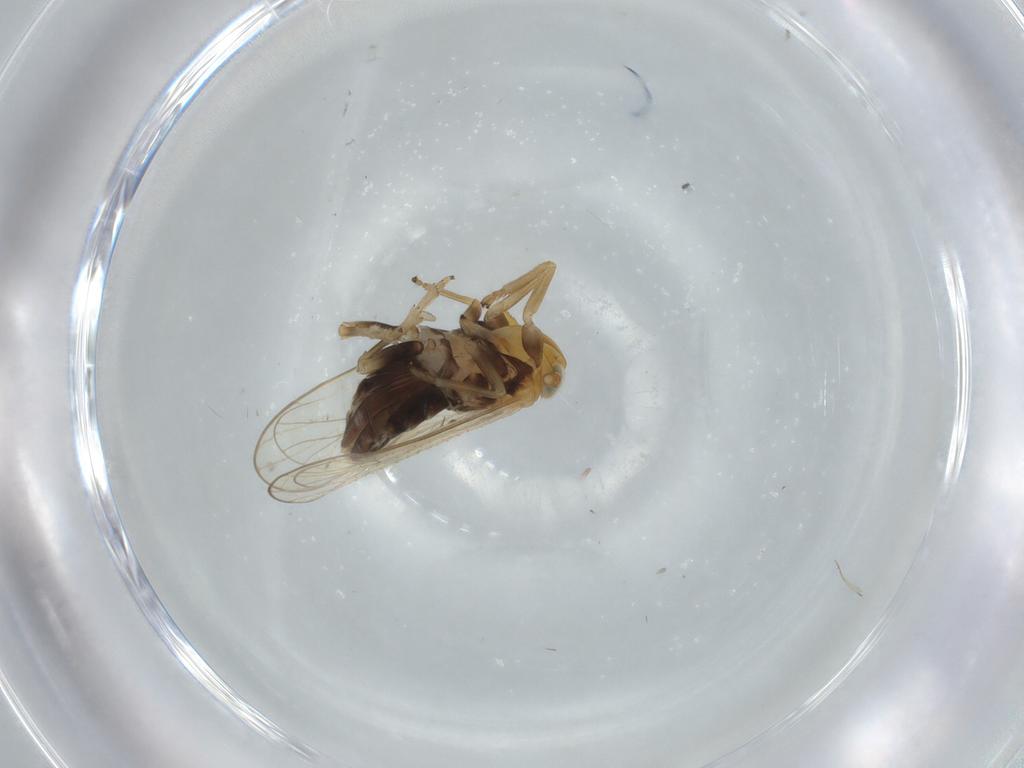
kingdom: Animalia
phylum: Arthropoda
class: Insecta
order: Hemiptera
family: Delphacidae
